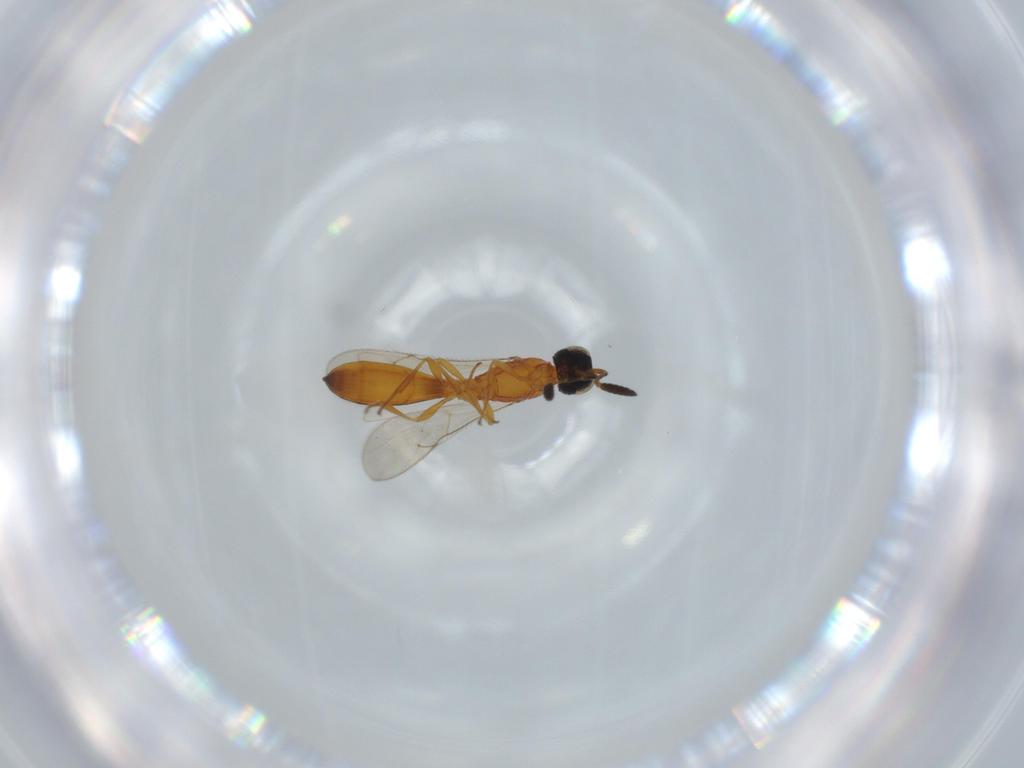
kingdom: Animalia
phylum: Arthropoda
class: Insecta
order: Hymenoptera
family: Scelionidae
